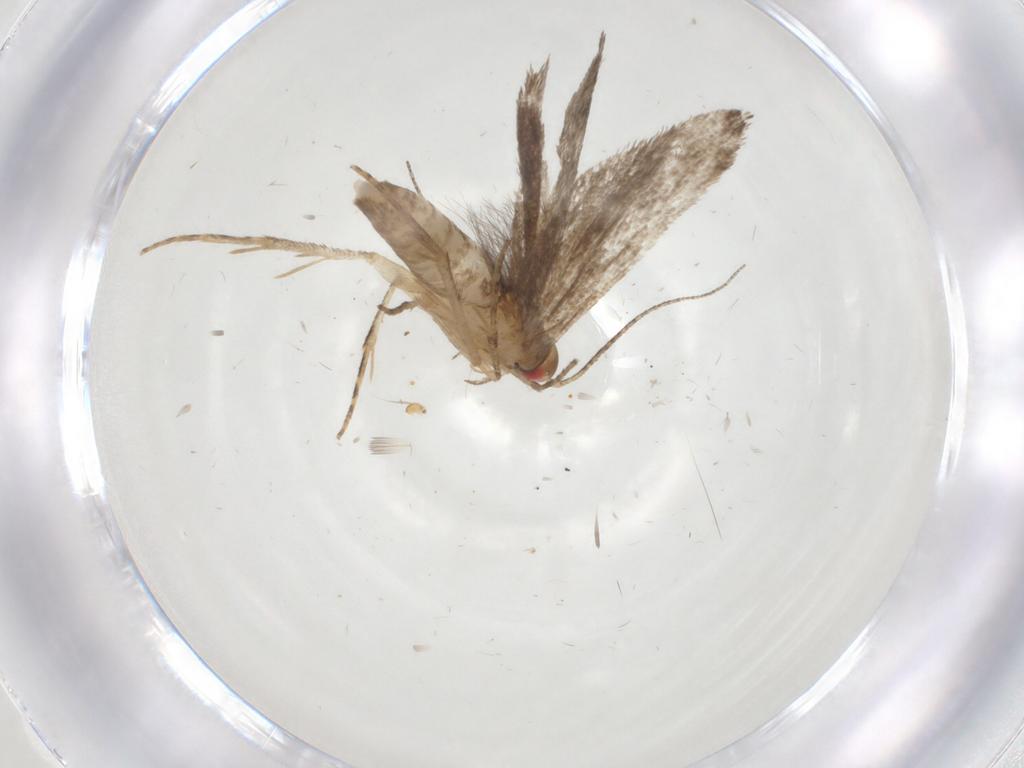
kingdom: Animalia
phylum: Arthropoda
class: Insecta
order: Lepidoptera
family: Gelechiidae
